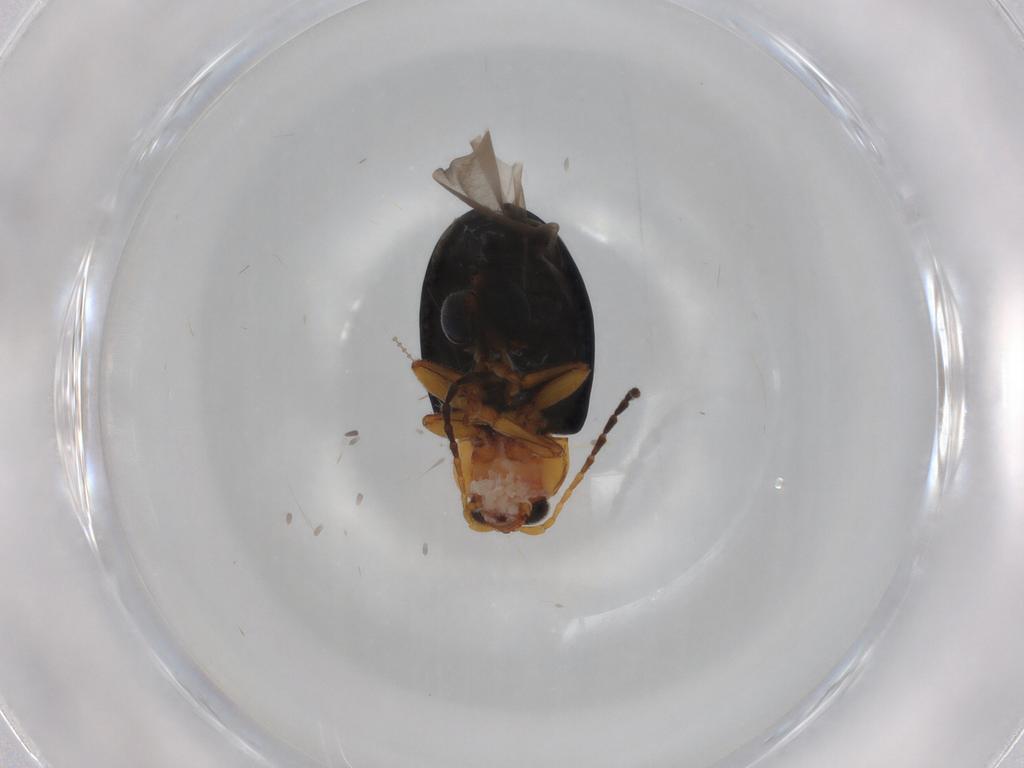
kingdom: Animalia
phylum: Arthropoda
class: Insecta
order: Coleoptera
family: Chrysomelidae
